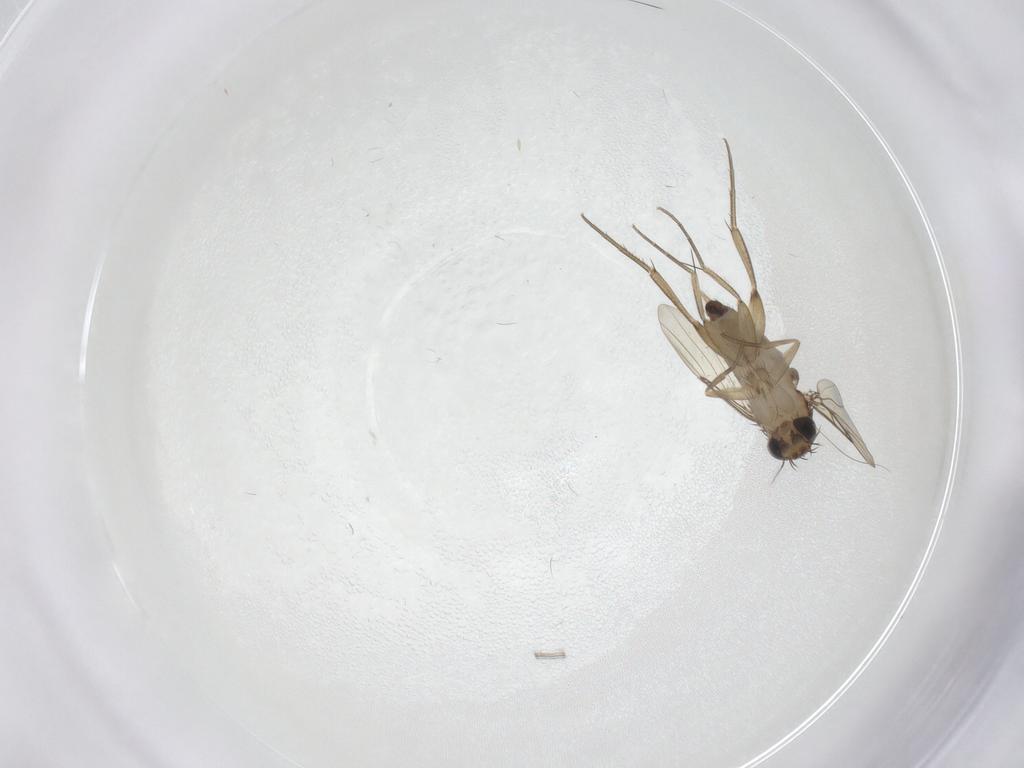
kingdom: Animalia
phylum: Arthropoda
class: Insecta
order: Diptera
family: Phoridae
